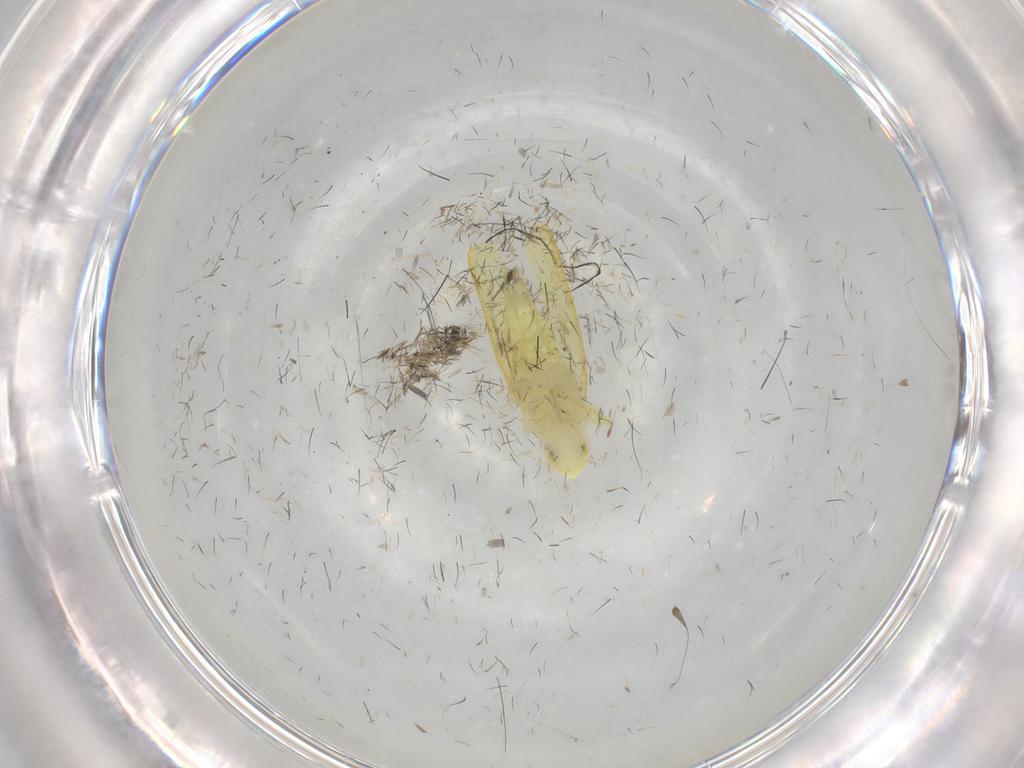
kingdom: Animalia
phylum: Arthropoda
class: Insecta
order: Hemiptera
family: Cicadellidae
